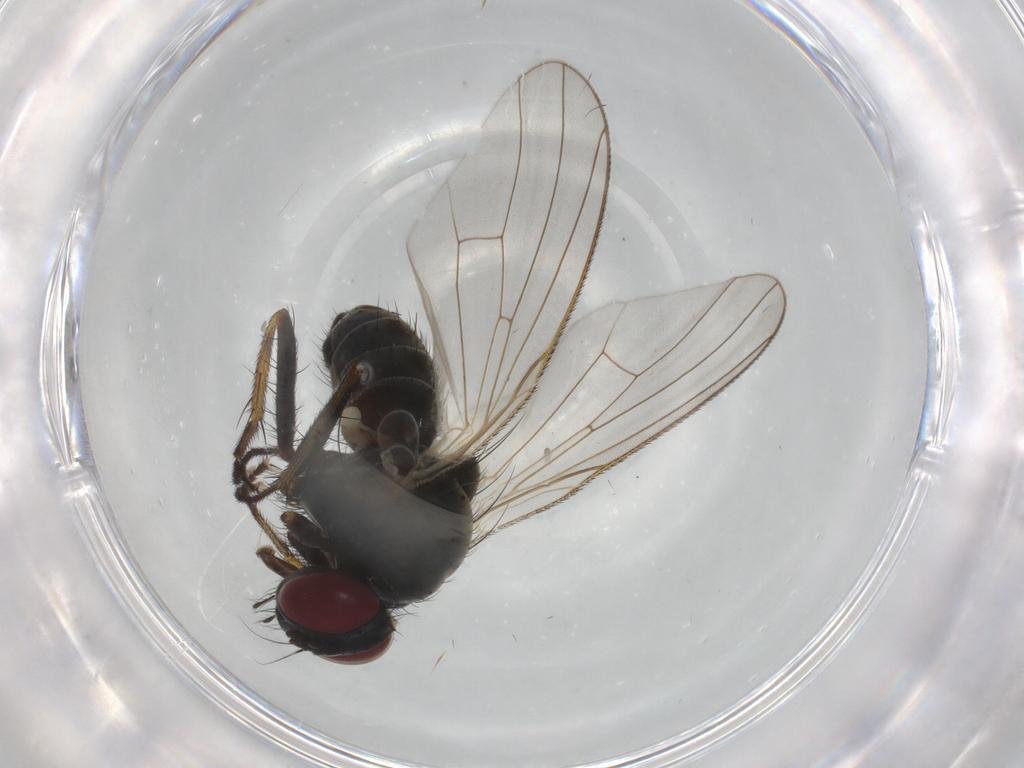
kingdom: Animalia
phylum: Arthropoda
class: Insecta
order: Diptera
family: Muscidae
